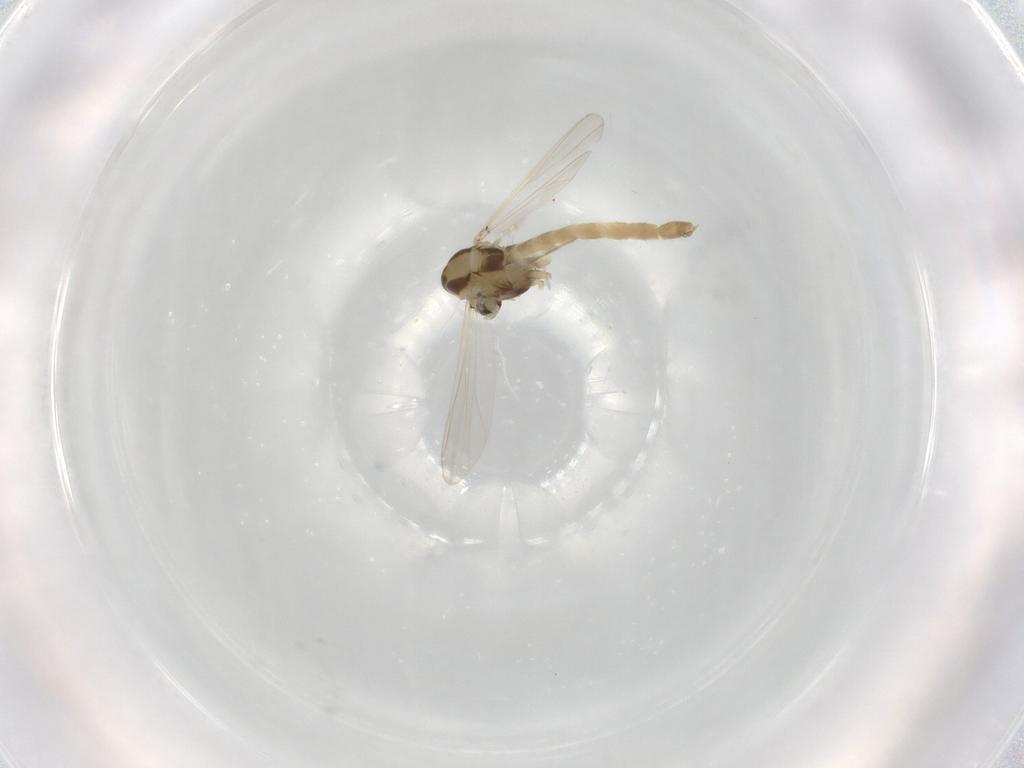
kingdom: Animalia
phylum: Arthropoda
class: Insecta
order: Diptera
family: Chironomidae
